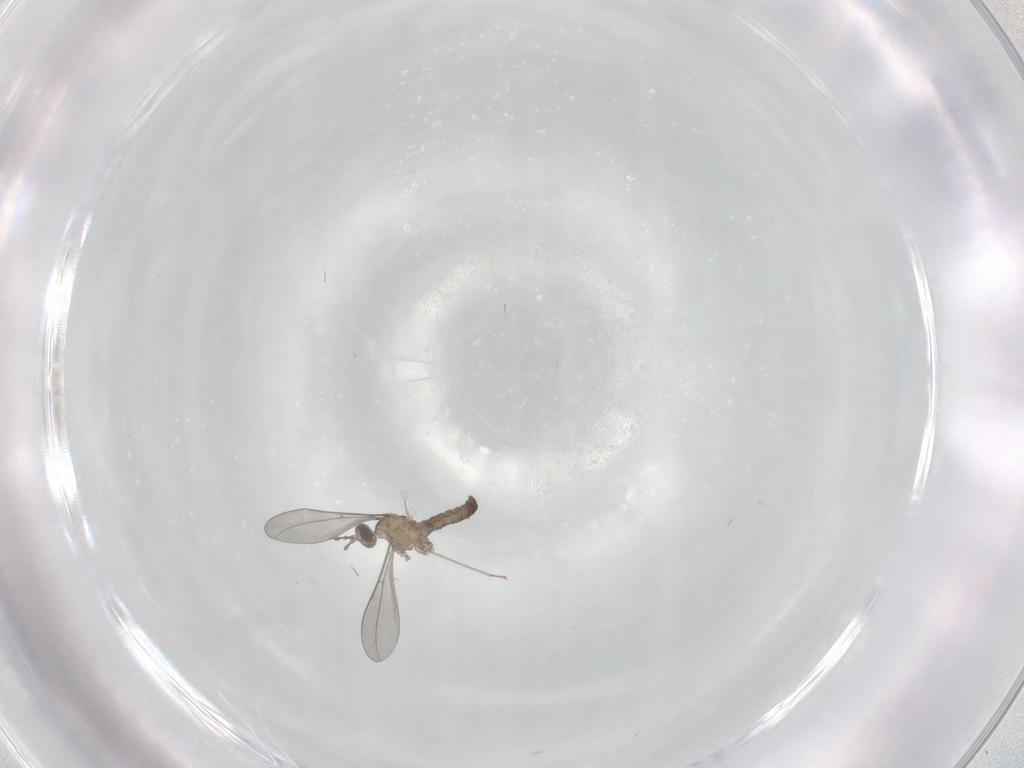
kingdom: Animalia
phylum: Arthropoda
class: Insecta
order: Diptera
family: Cecidomyiidae
